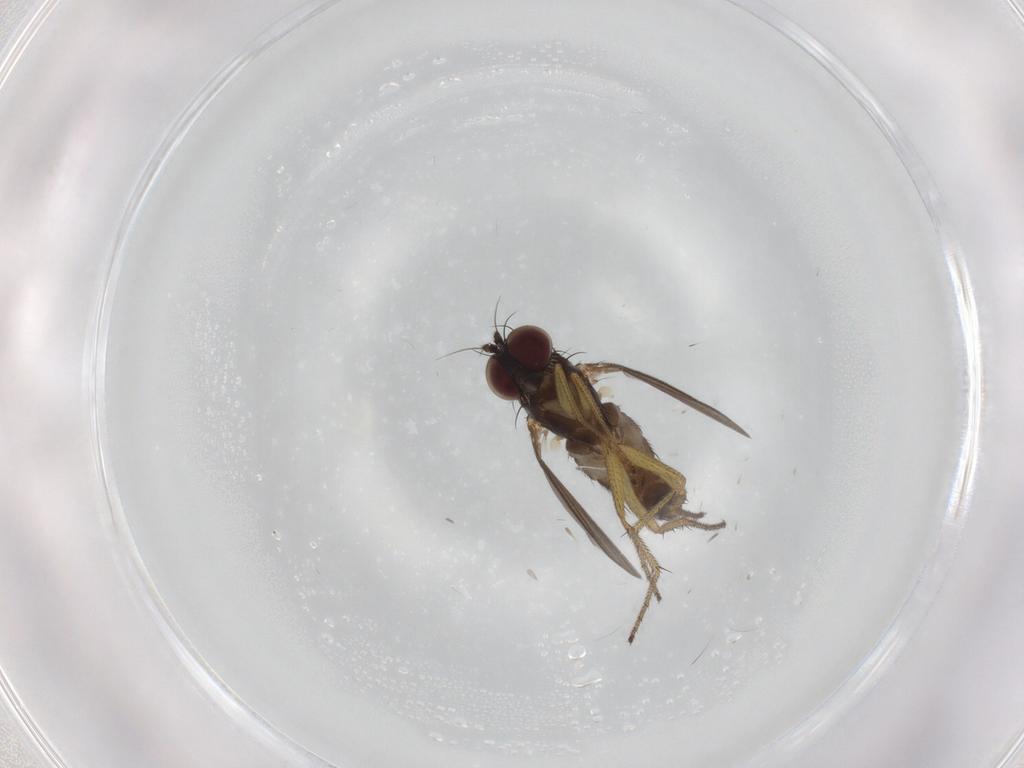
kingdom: Animalia
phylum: Arthropoda
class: Insecta
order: Diptera
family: Dolichopodidae
